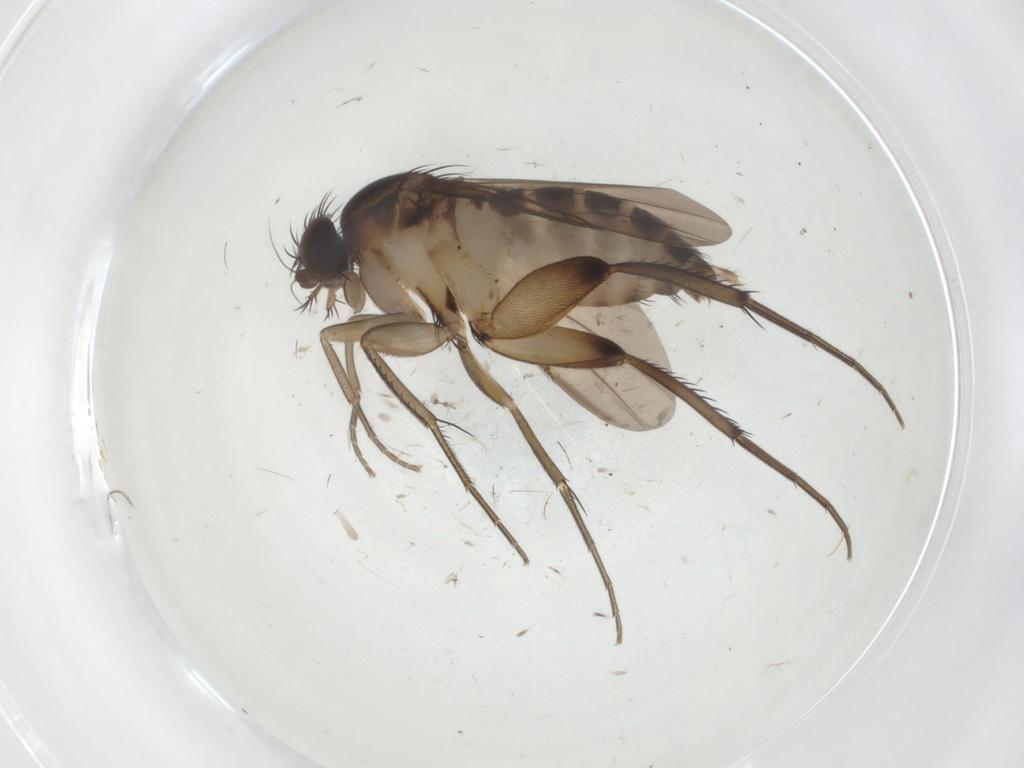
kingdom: Animalia
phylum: Arthropoda
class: Insecta
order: Diptera
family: Phoridae
